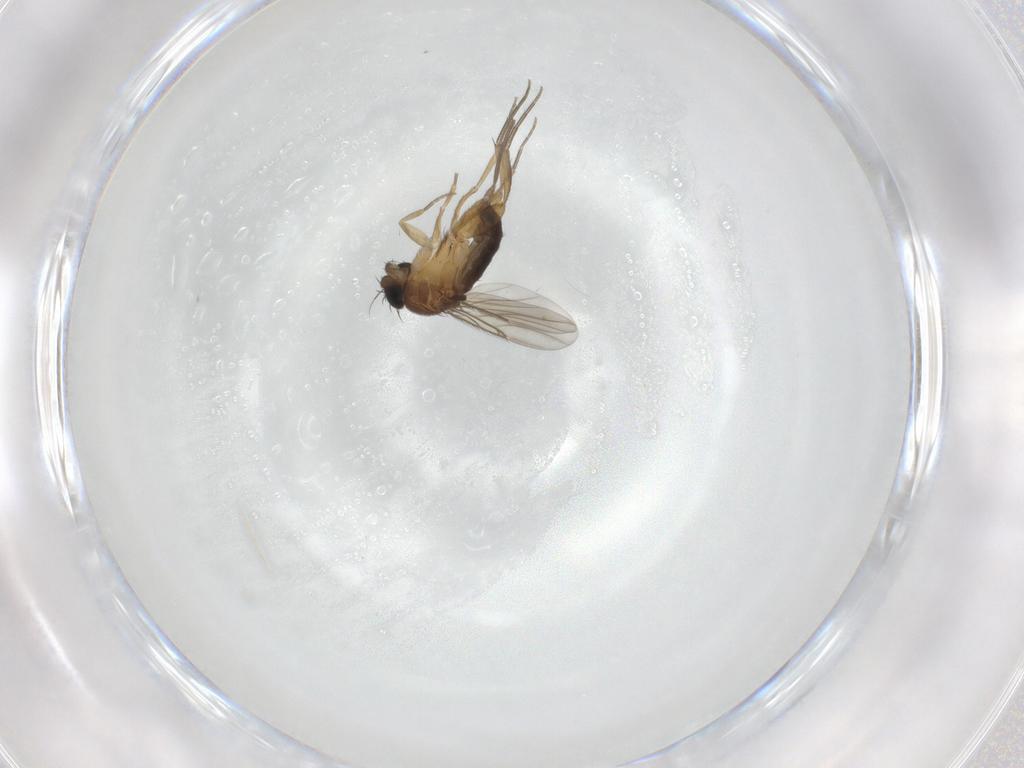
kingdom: Animalia
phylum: Arthropoda
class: Insecta
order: Diptera
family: Phoridae
